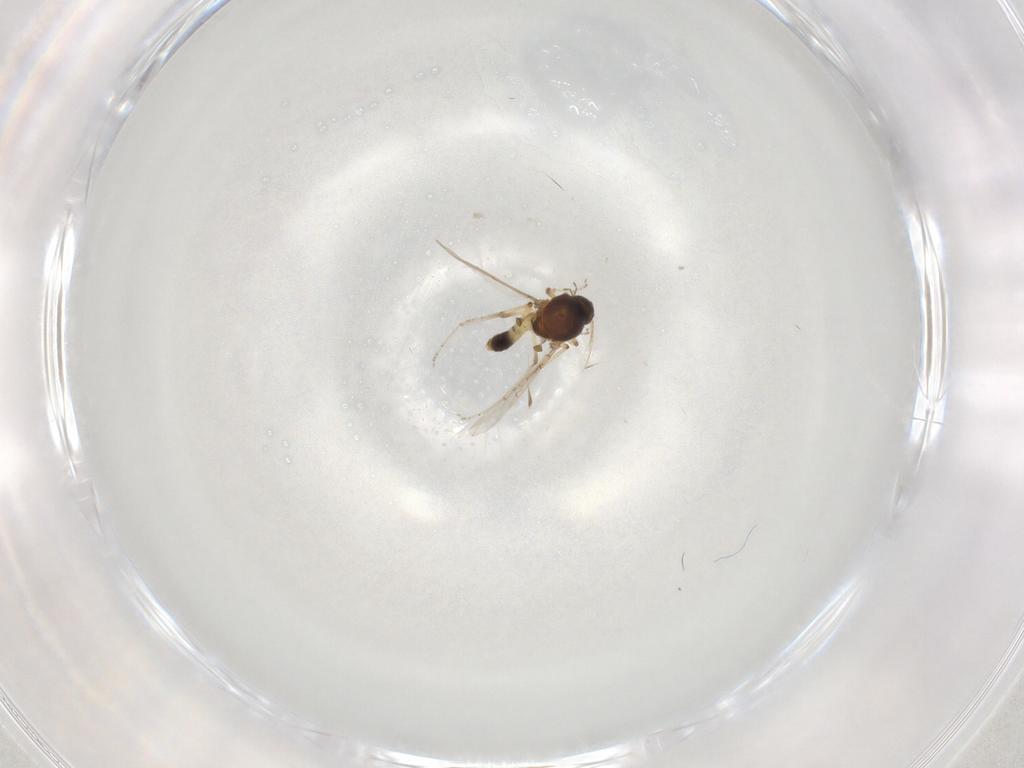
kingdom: Animalia
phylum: Arthropoda
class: Insecta
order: Diptera
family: Ceratopogonidae
